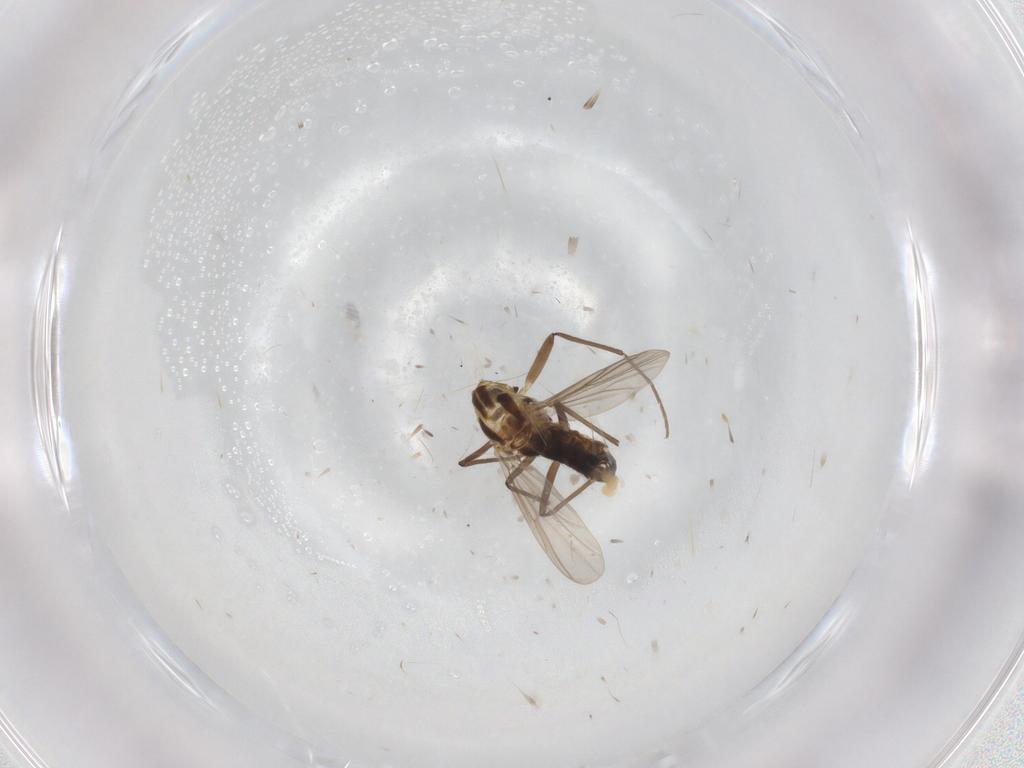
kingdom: Animalia
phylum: Arthropoda
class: Insecta
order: Diptera
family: Chironomidae
